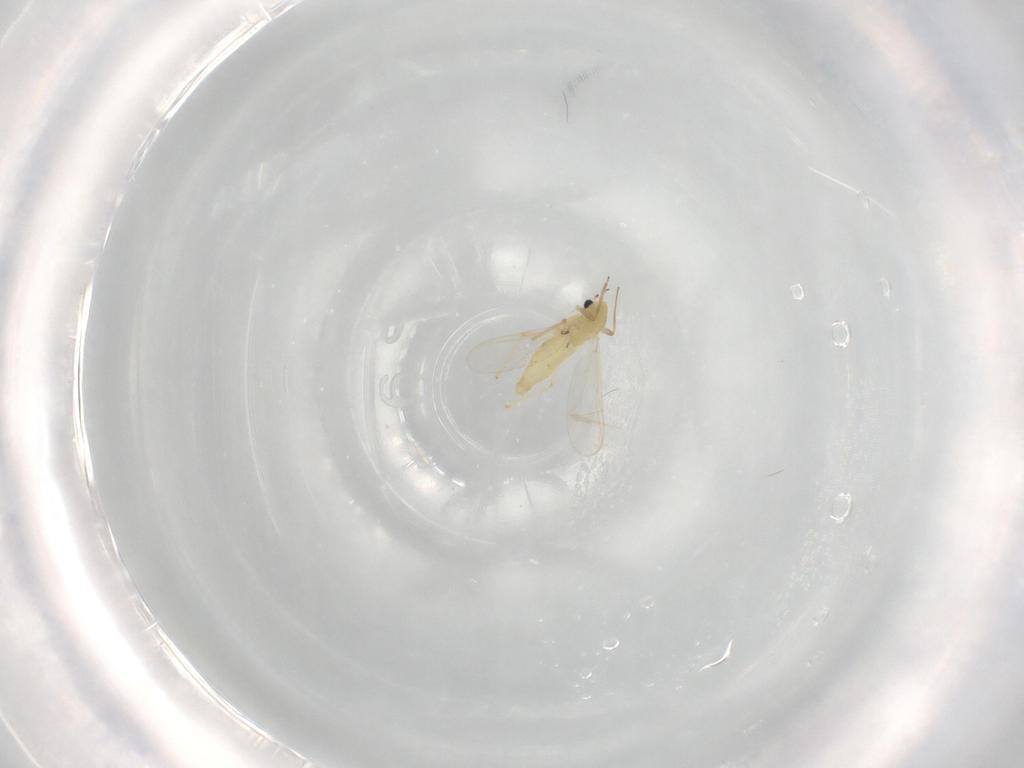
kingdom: Animalia
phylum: Arthropoda
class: Insecta
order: Diptera
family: Chironomidae
